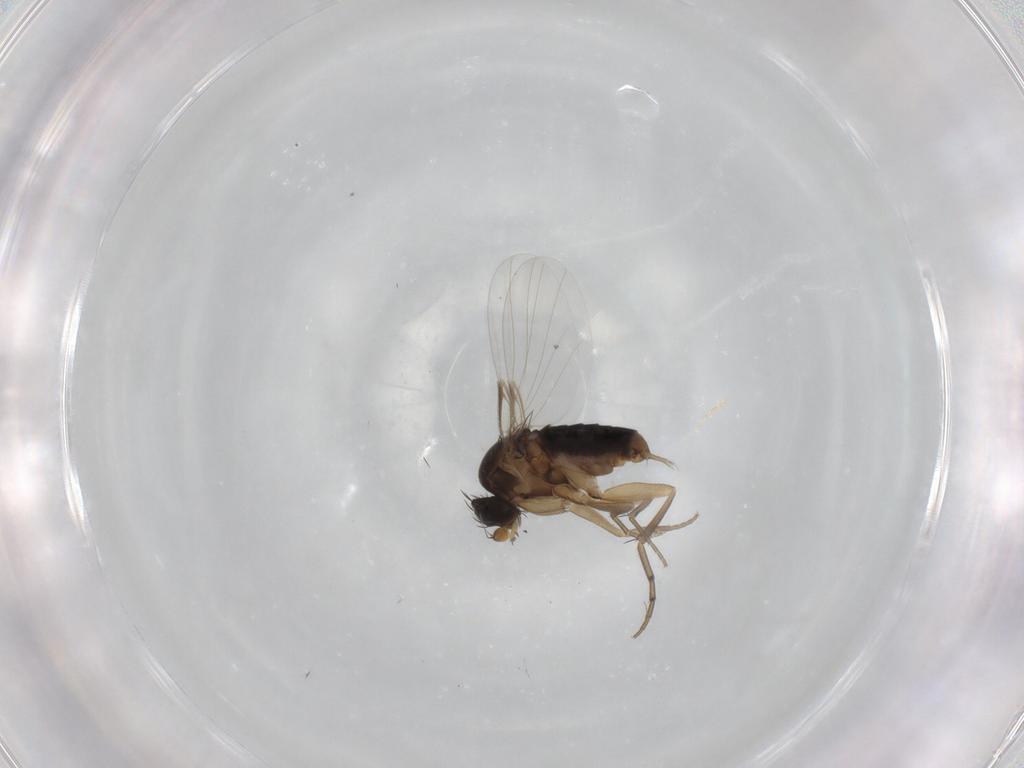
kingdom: Animalia
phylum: Arthropoda
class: Insecta
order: Diptera
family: Phoridae
